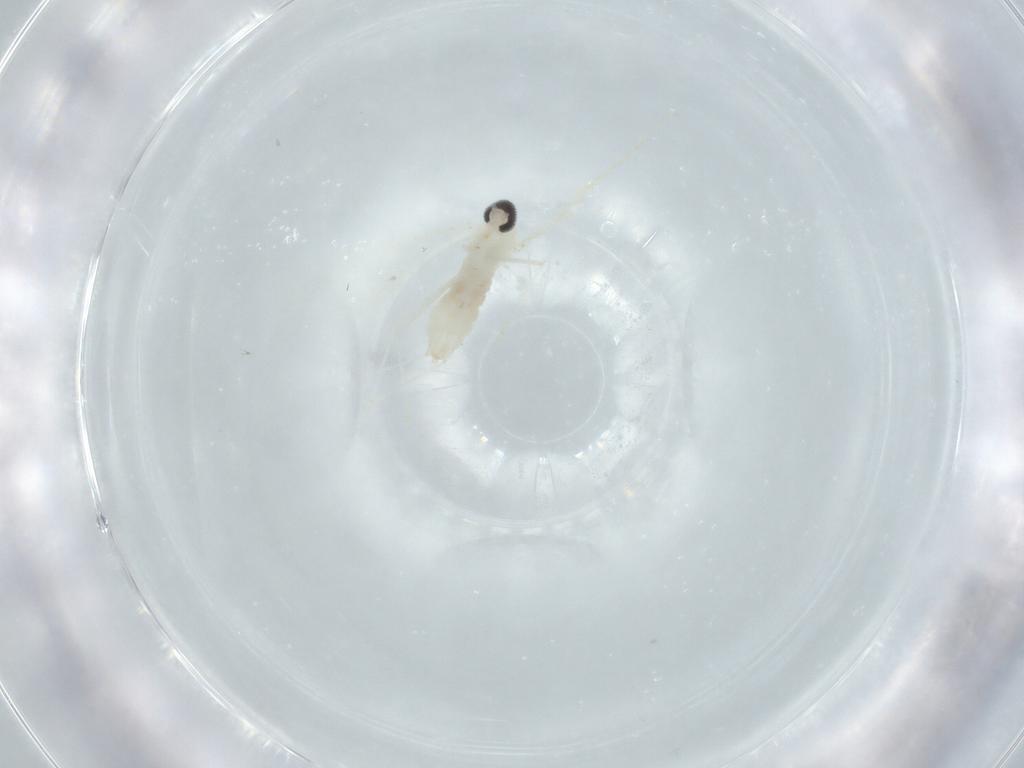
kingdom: Animalia
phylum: Arthropoda
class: Insecta
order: Diptera
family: Cecidomyiidae
